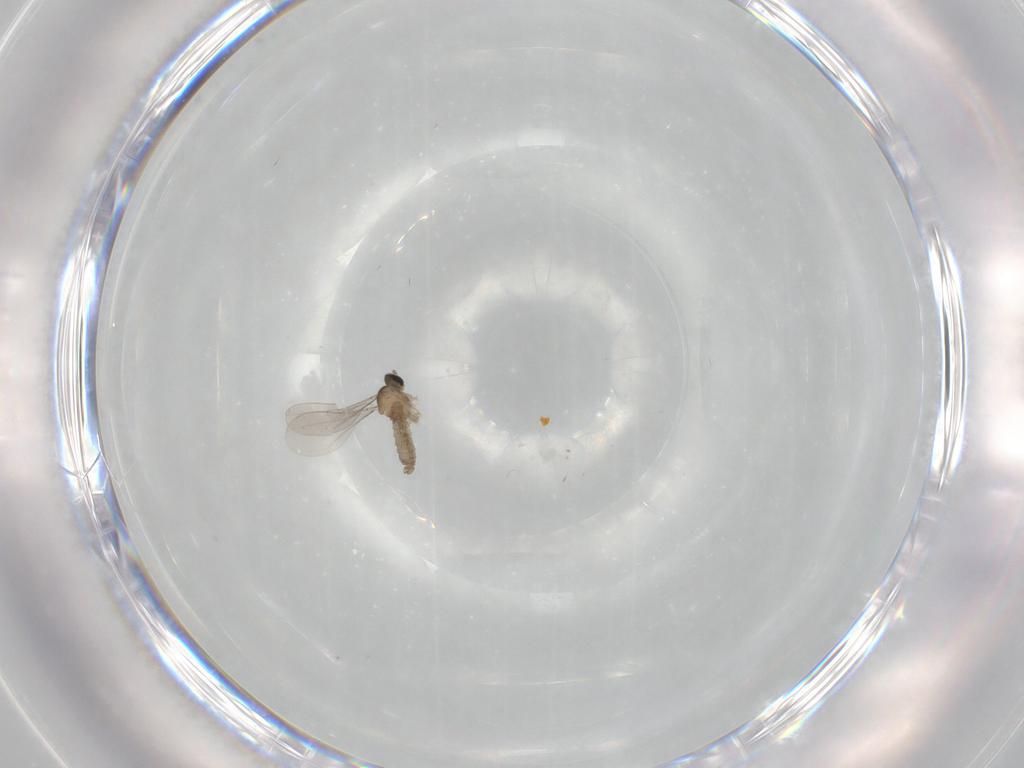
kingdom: Animalia
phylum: Arthropoda
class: Insecta
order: Diptera
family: Cecidomyiidae
